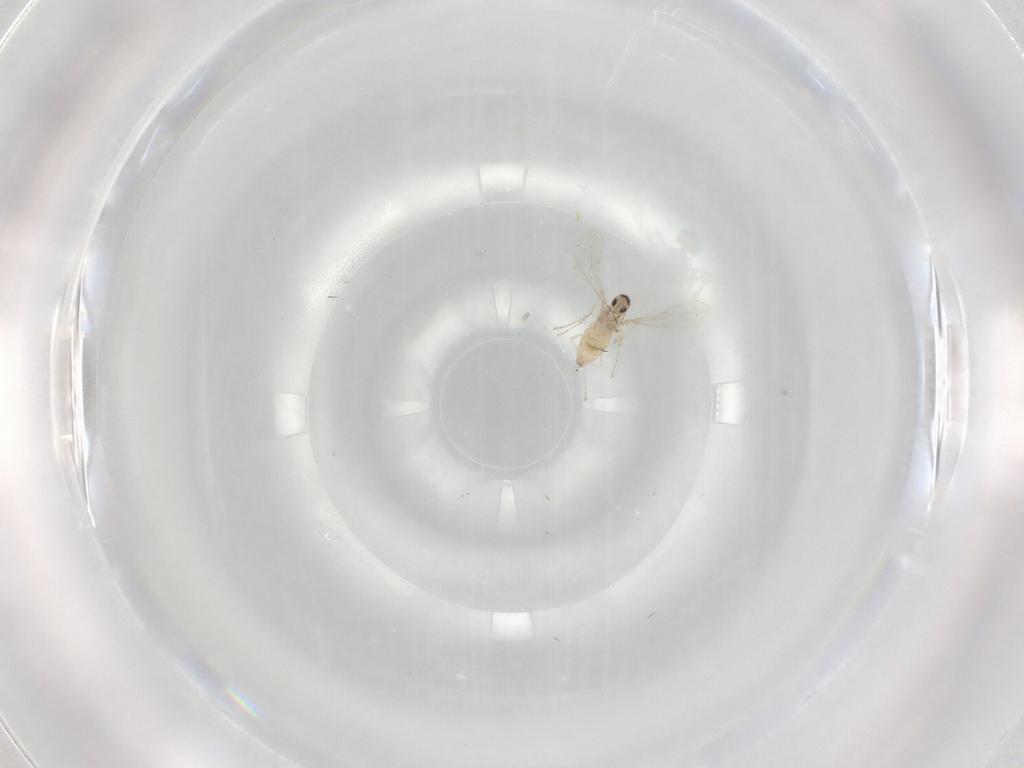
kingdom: Animalia
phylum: Arthropoda
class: Insecta
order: Diptera
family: Cecidomyiidae
